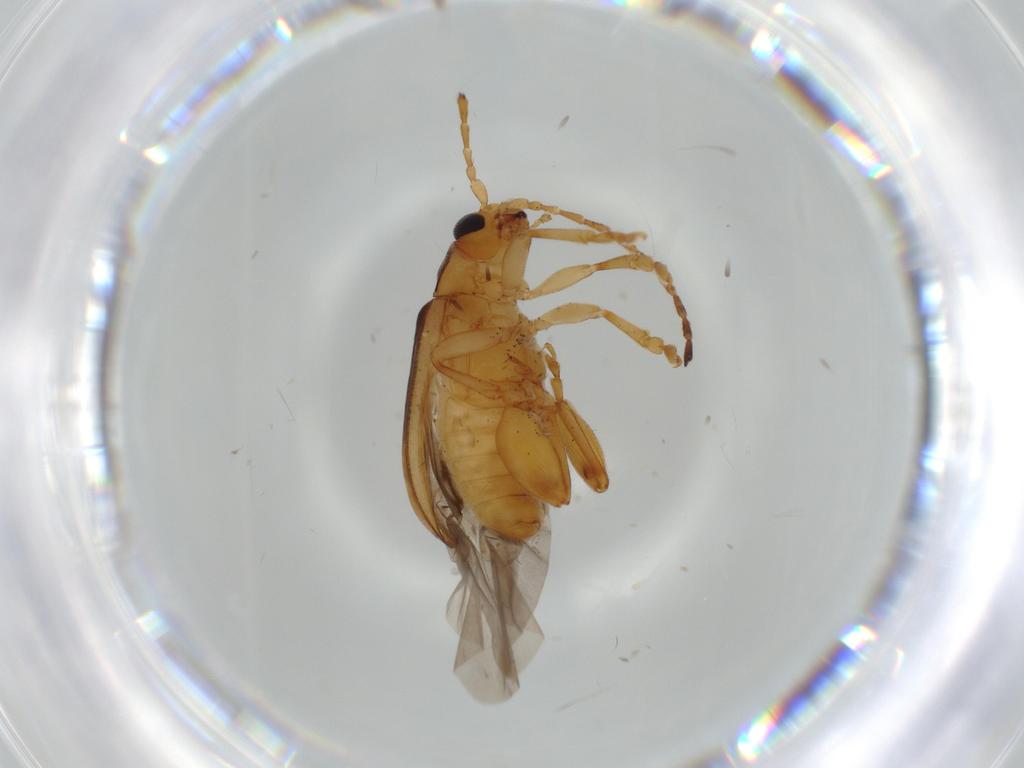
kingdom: Animalia
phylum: Arthropoda
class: Insecta
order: Coleoptera
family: Chrysomelidae
